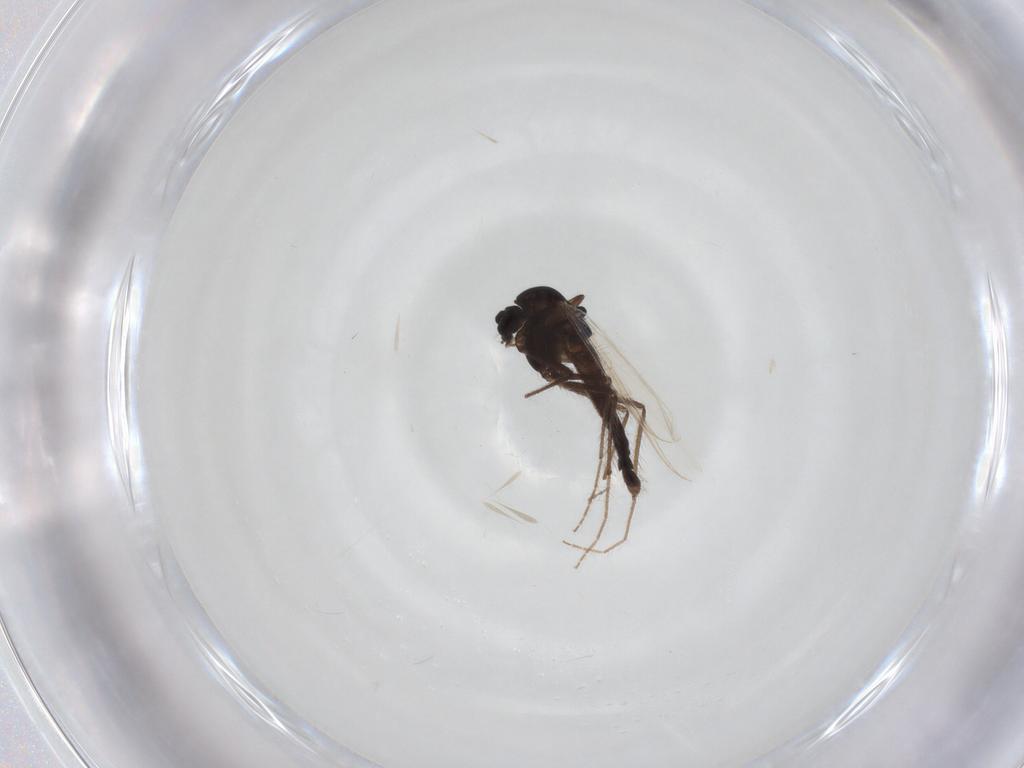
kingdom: Animalia
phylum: Arthropoda
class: Insecta
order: Diptera
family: Chironomidae
